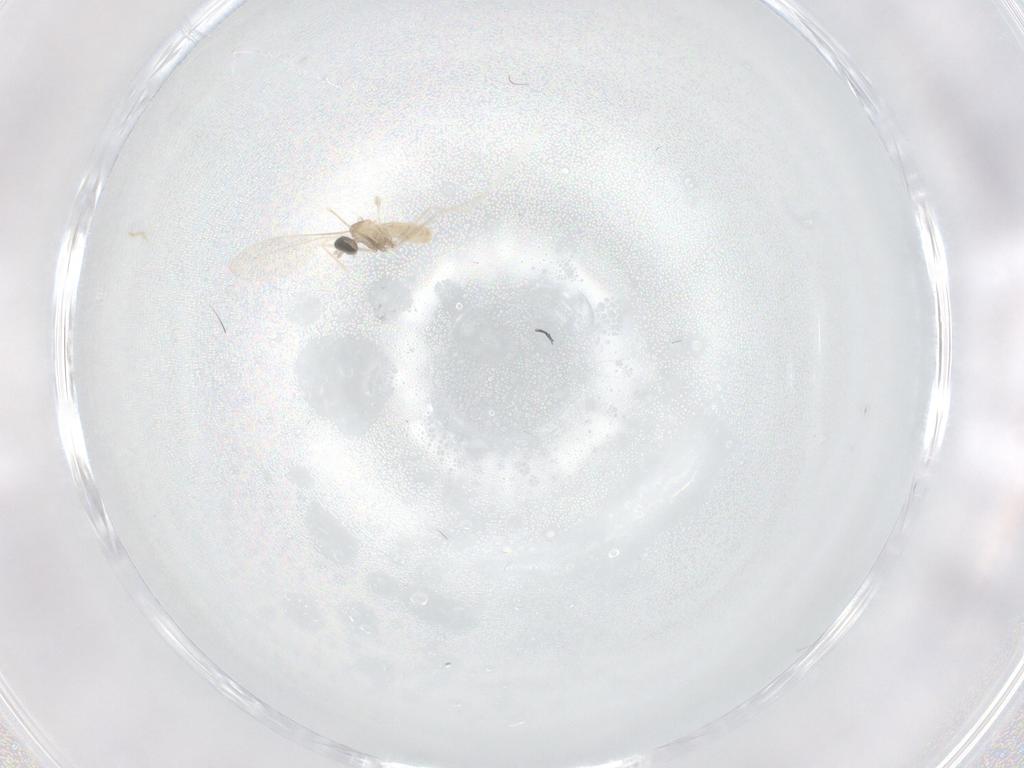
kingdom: Animalia
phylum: Arthropoda
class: Insecta
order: Diptera
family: Cecidomyiidae
